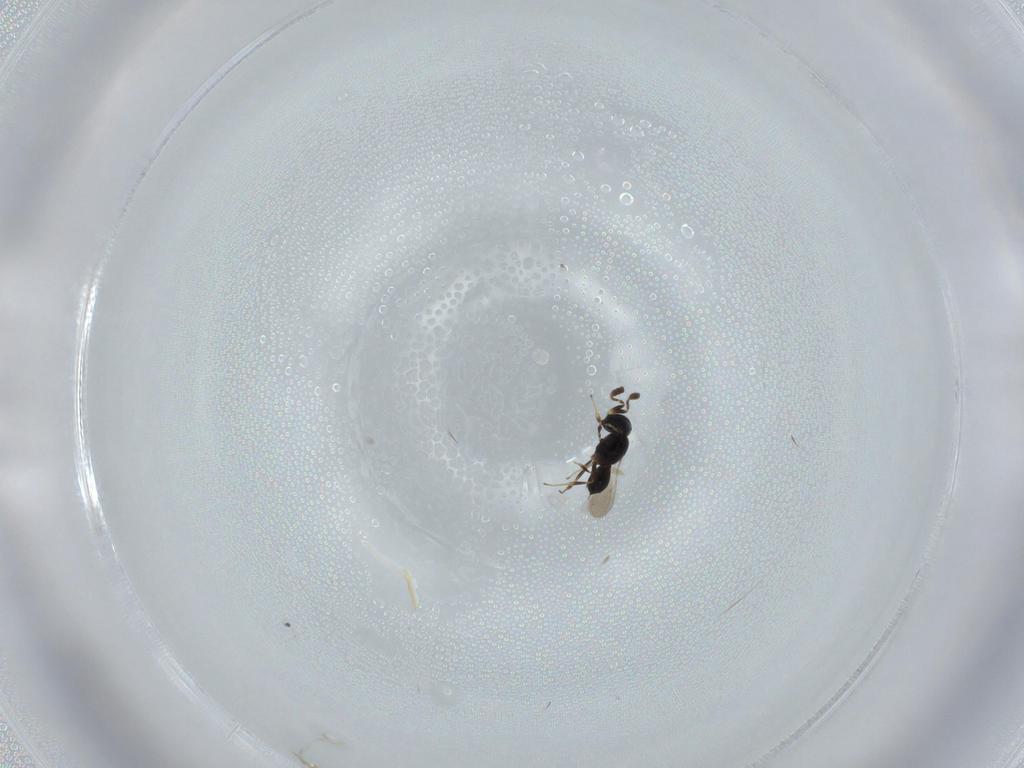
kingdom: Animalia
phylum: Arthropoda
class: Insecta
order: Hymenoptera
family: Scelionidae
